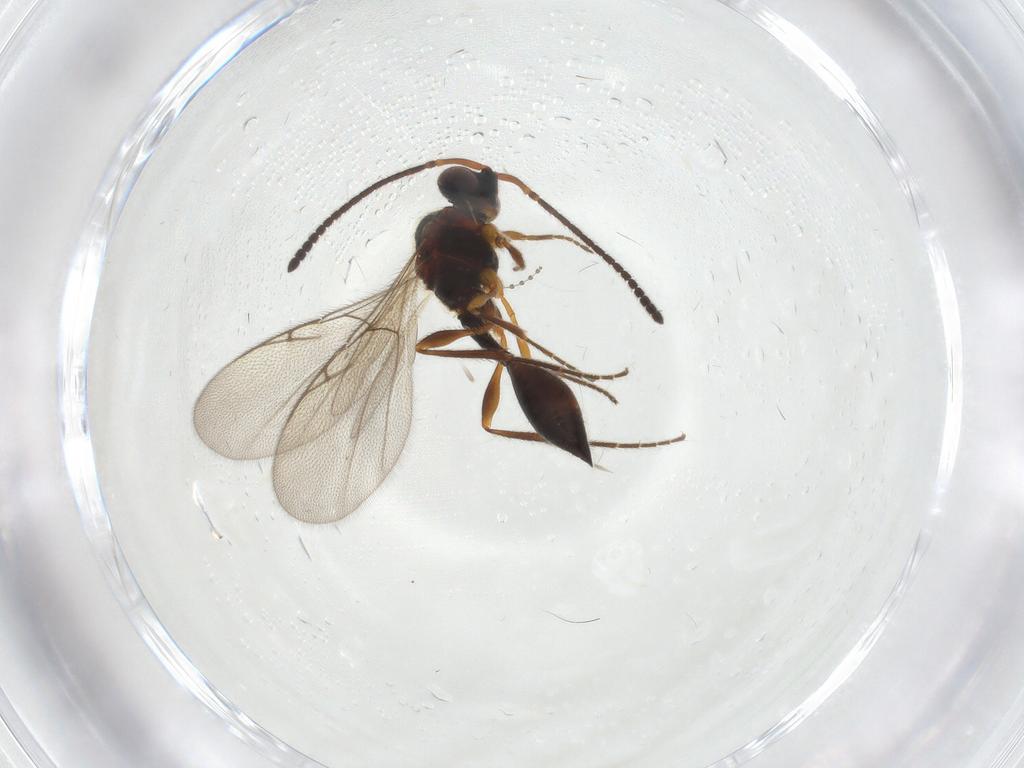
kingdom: Animalia
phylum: Arthropoda
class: Insecta
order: Hymenoptera
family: Diapriidae
